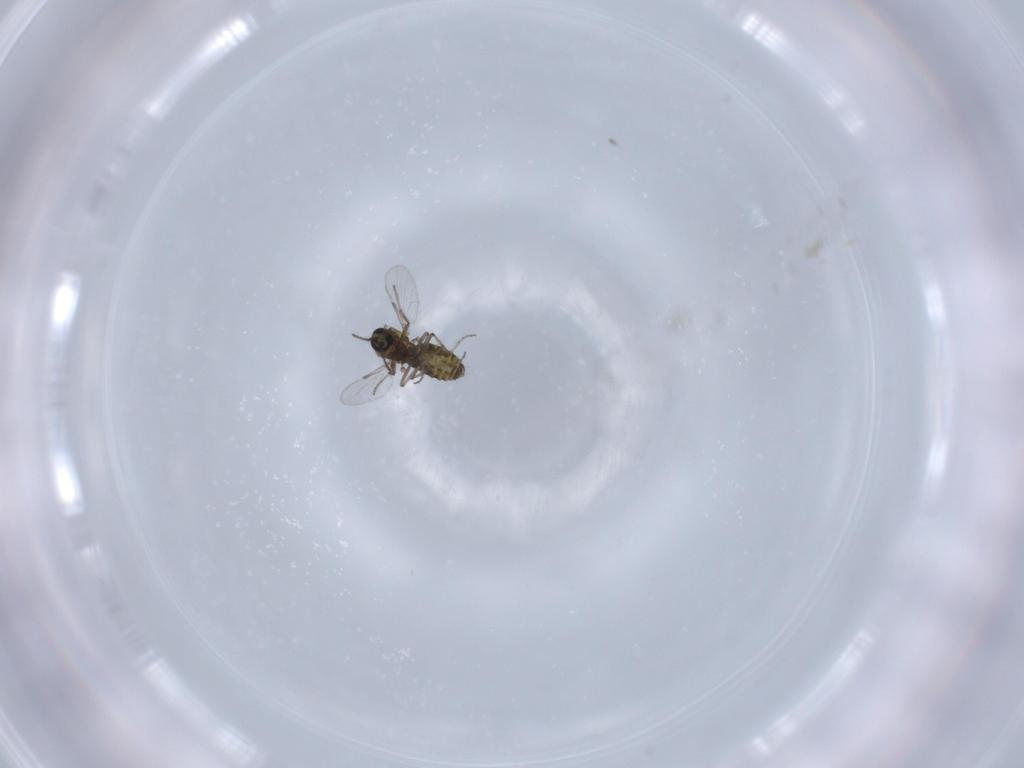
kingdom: Animalia
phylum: Arthropoda
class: Insecta
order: Diptera
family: Ceratopogonidae
